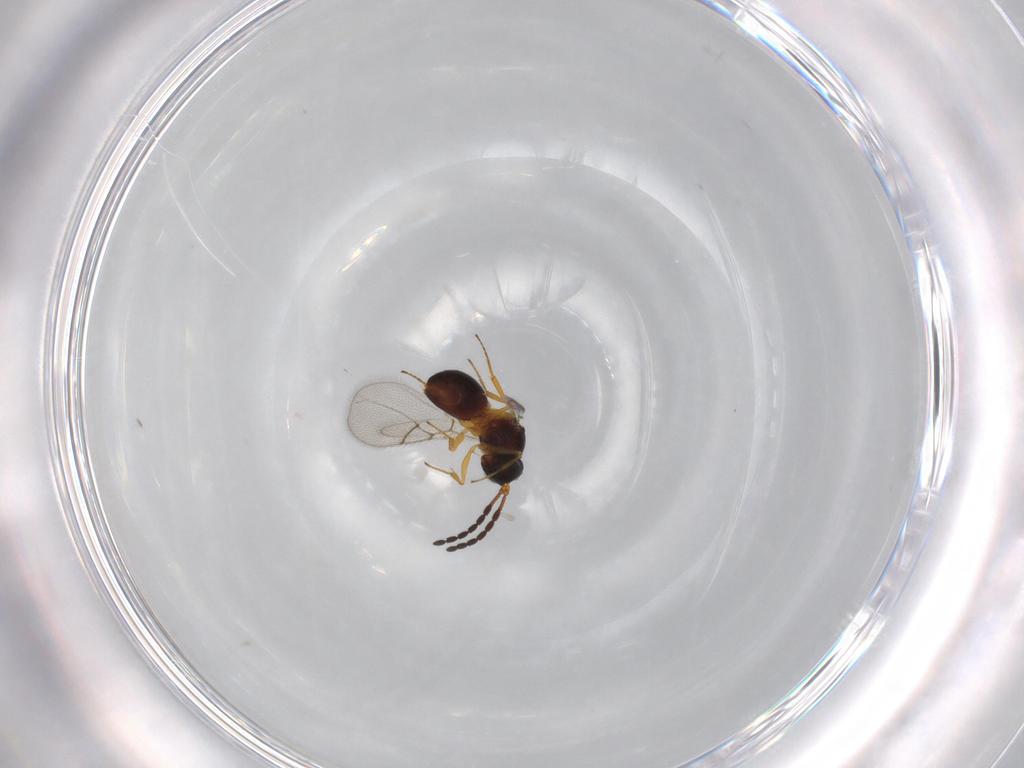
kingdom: Animalia
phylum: Arthropoda
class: Insecta
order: Hymenoptera
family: Figitidae
